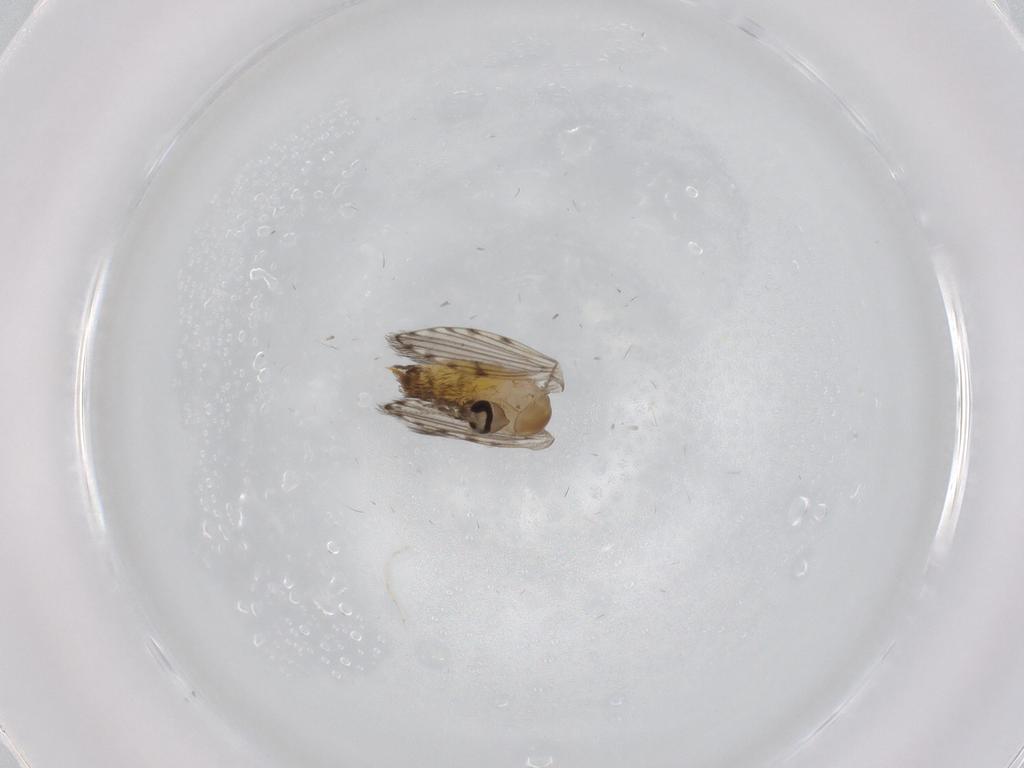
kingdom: Animalia
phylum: Arthropoda
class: Insecta
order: Diptera
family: Psychodidae
